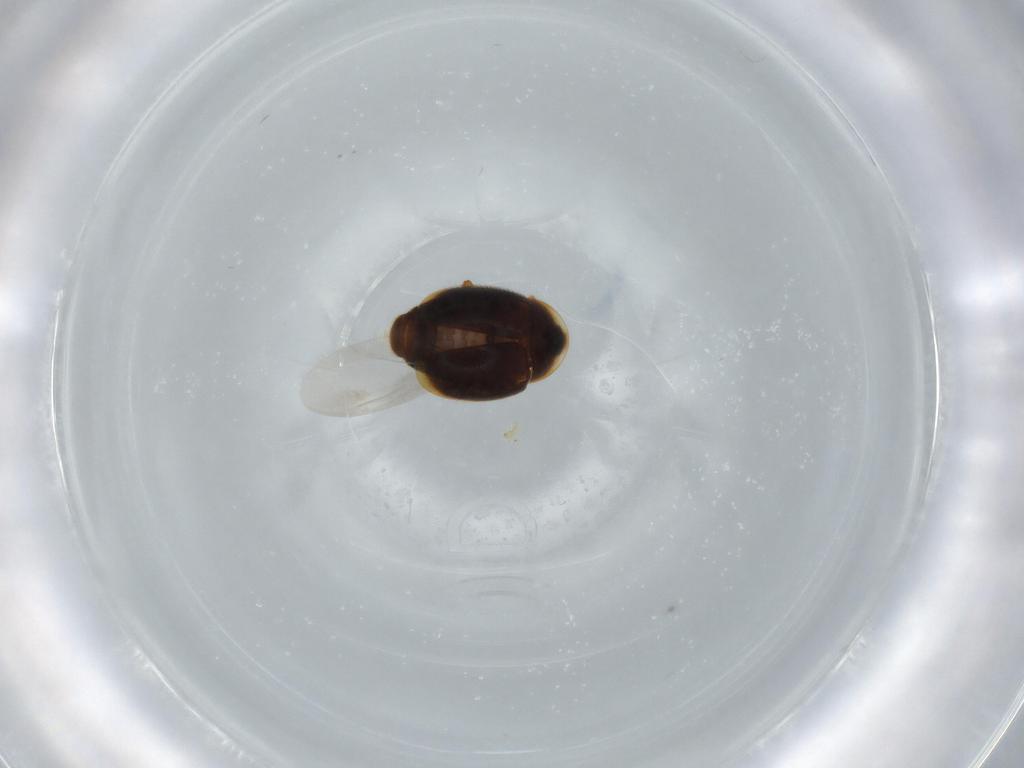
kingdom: Animalia
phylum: Arthropoda
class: Insecta
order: Coleoptera
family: Corylophidae
